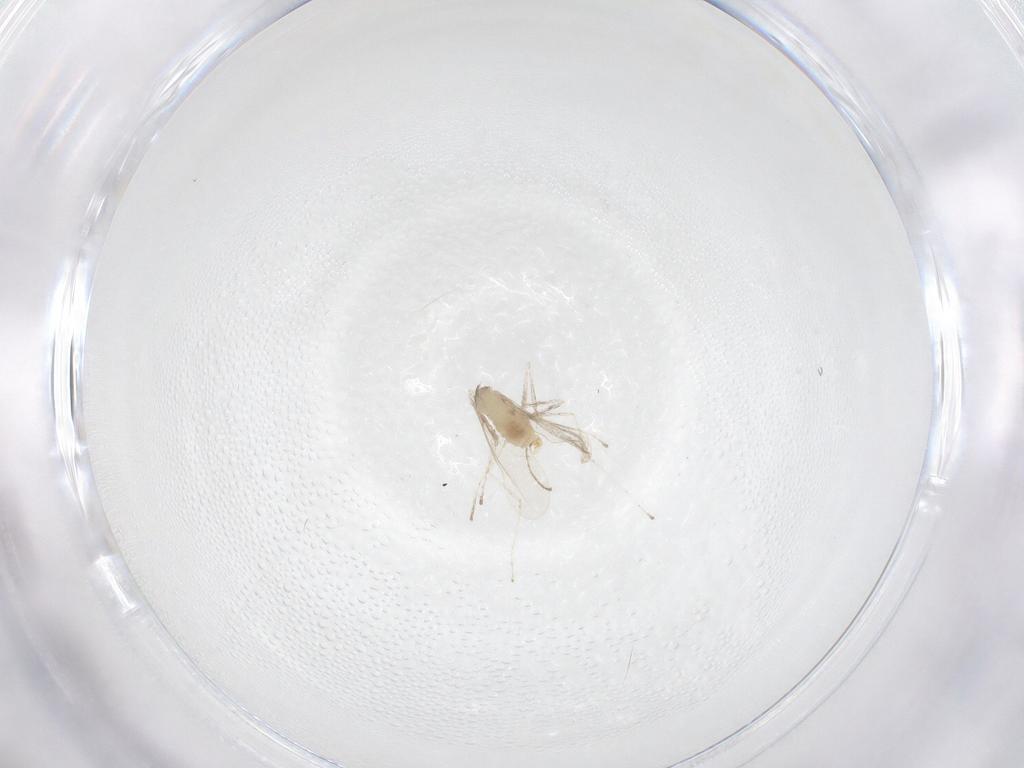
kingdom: Animalia
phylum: Arthropoda
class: Insecta
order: Diptera
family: Cecidomyiidae
